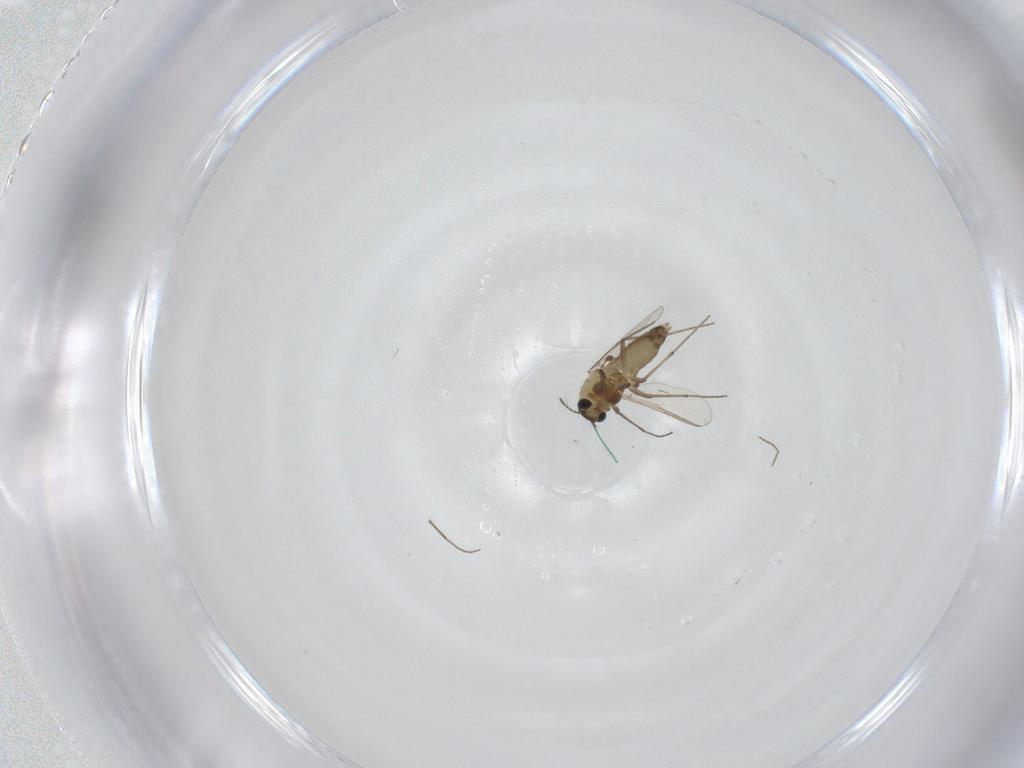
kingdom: Animalia
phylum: Arthropoda
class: Insecta
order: Diptera
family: Chironomidae
